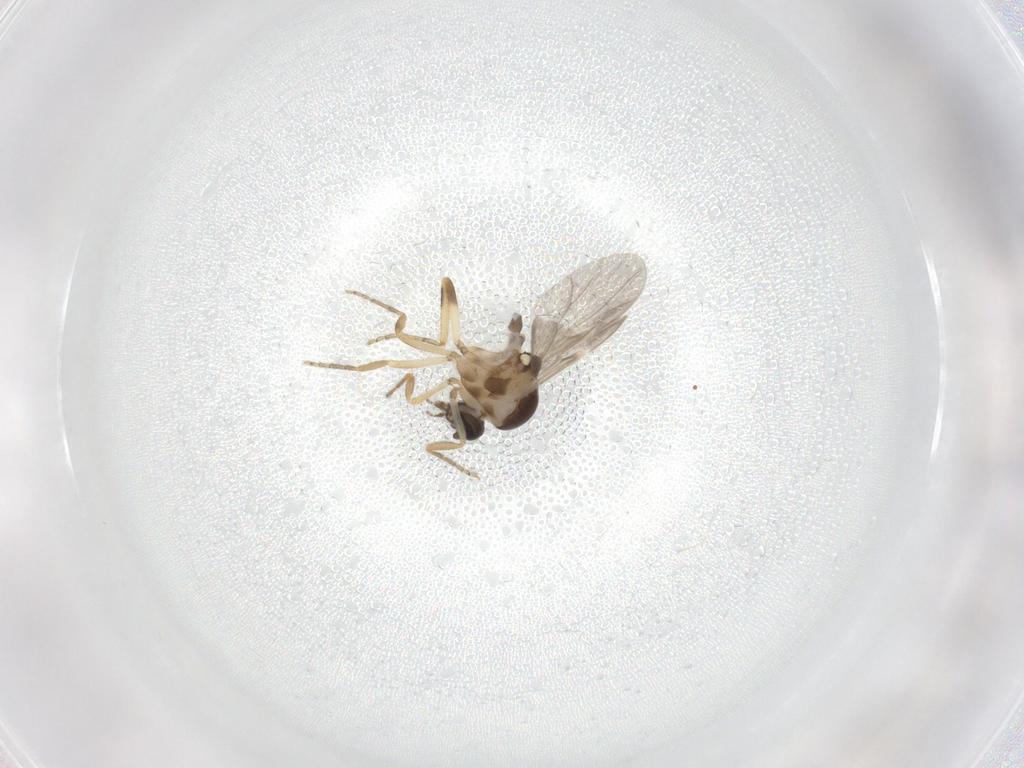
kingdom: Animalia
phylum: Arthropoda
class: Insecta
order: Diptera
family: Ceratopogonidae
